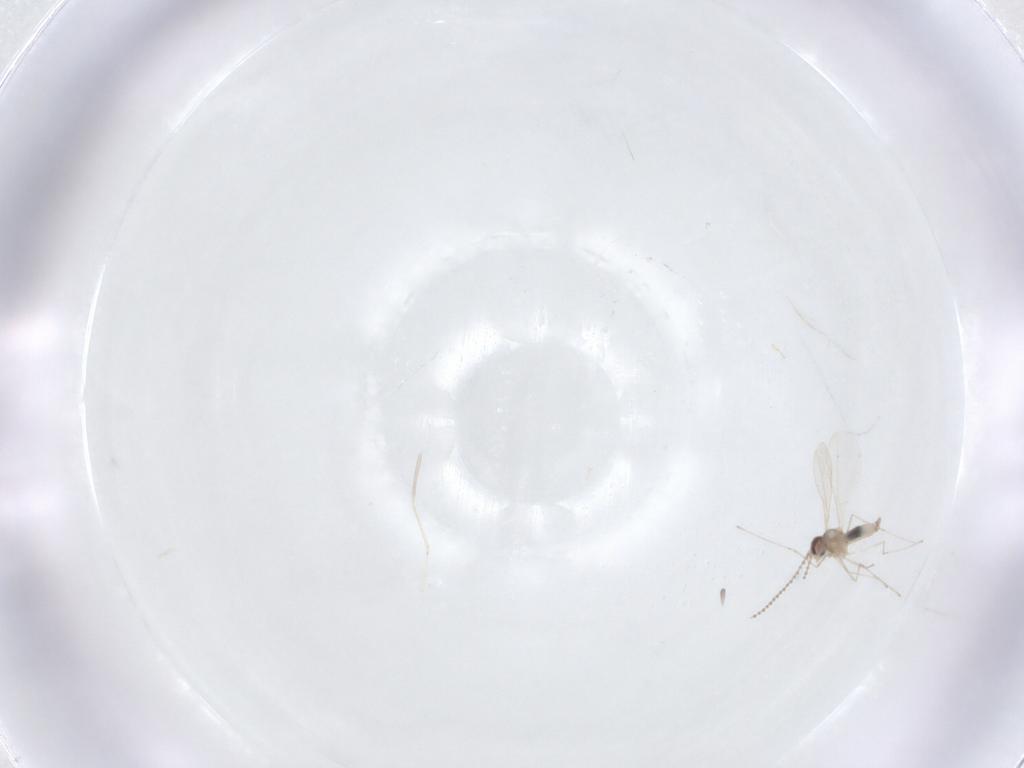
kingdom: Animalia
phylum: Arthropoda
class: Insecta
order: Diptera
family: Cecidomyiidae
